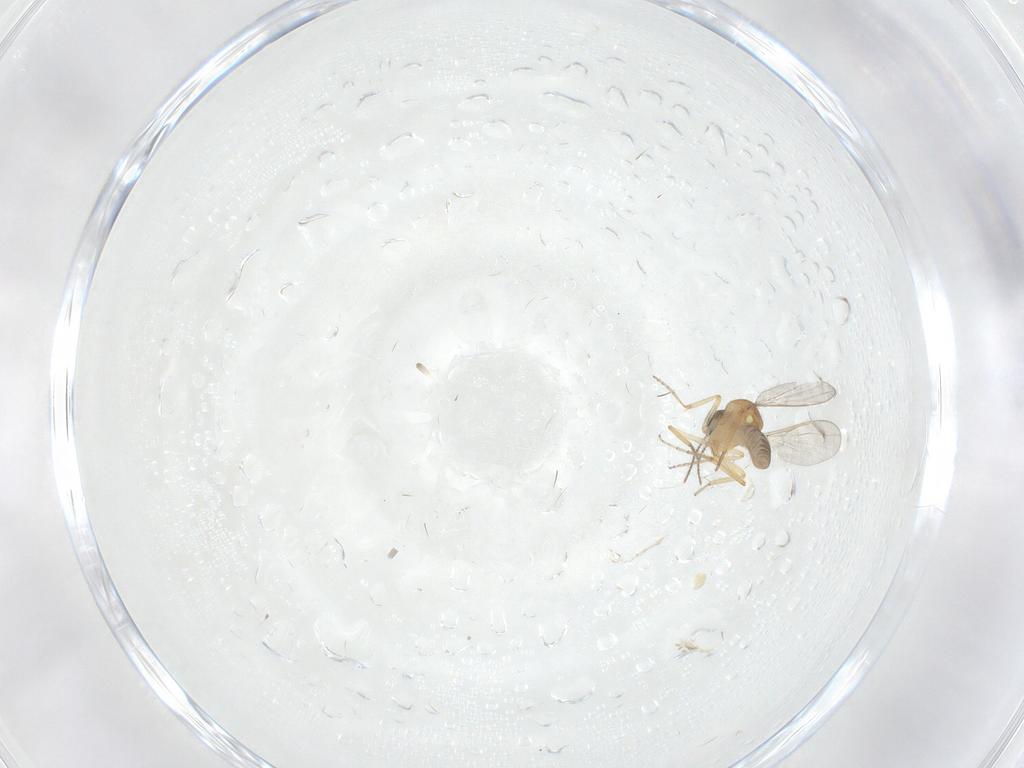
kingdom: Animalia
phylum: Arthropoda
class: Insecta
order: Diptera
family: Ceratopogonidae
